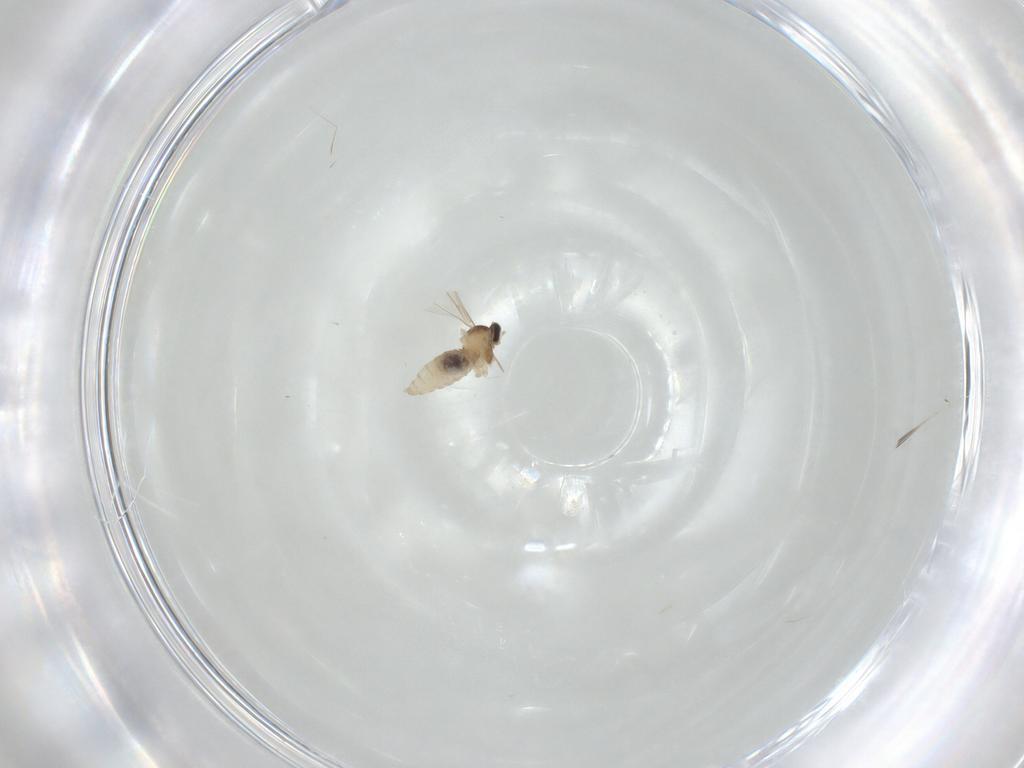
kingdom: Animalia
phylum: Arthropoda
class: Insecta
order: Diptera
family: Cecidomyiidae
